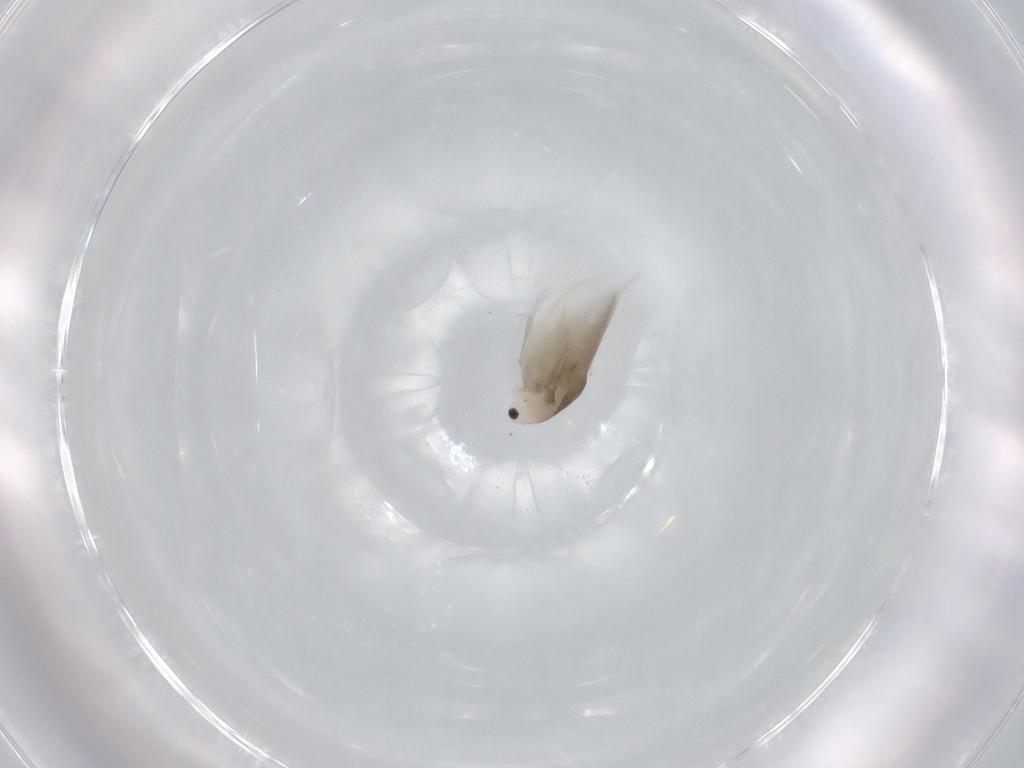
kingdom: Animalia
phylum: Arthropoda
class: Branchiopoda
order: Diplostraca
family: Daphniidae
